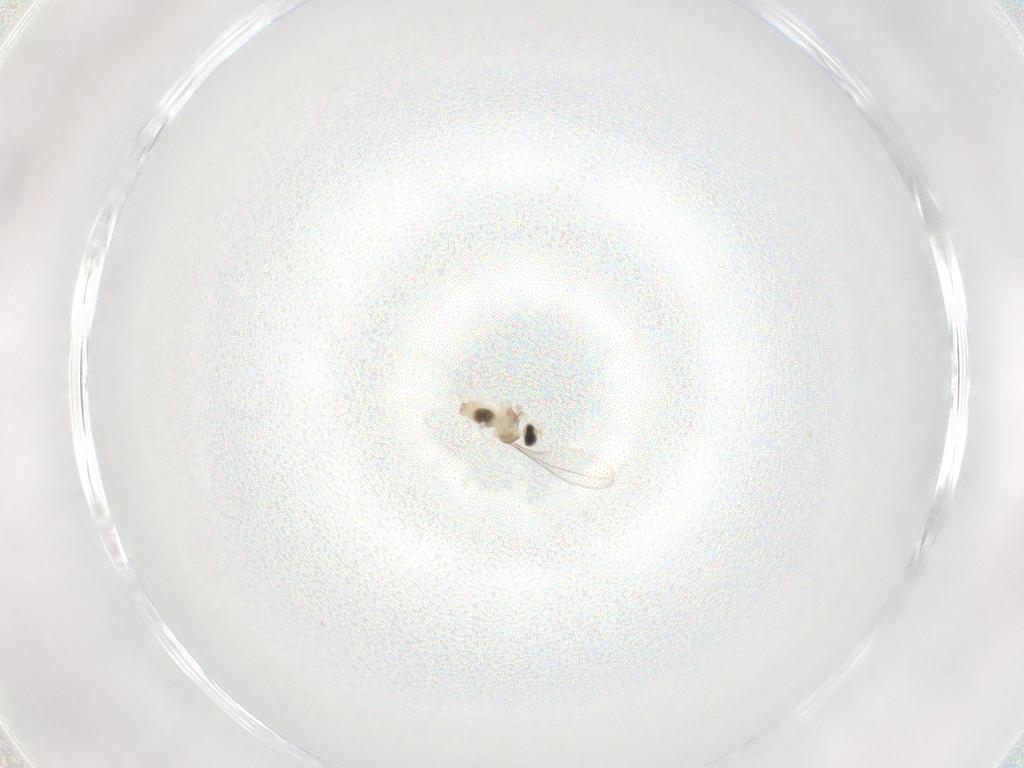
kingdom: Animalia
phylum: Arthropoda
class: Insecta
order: Diptera
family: Cecidomyiidae
